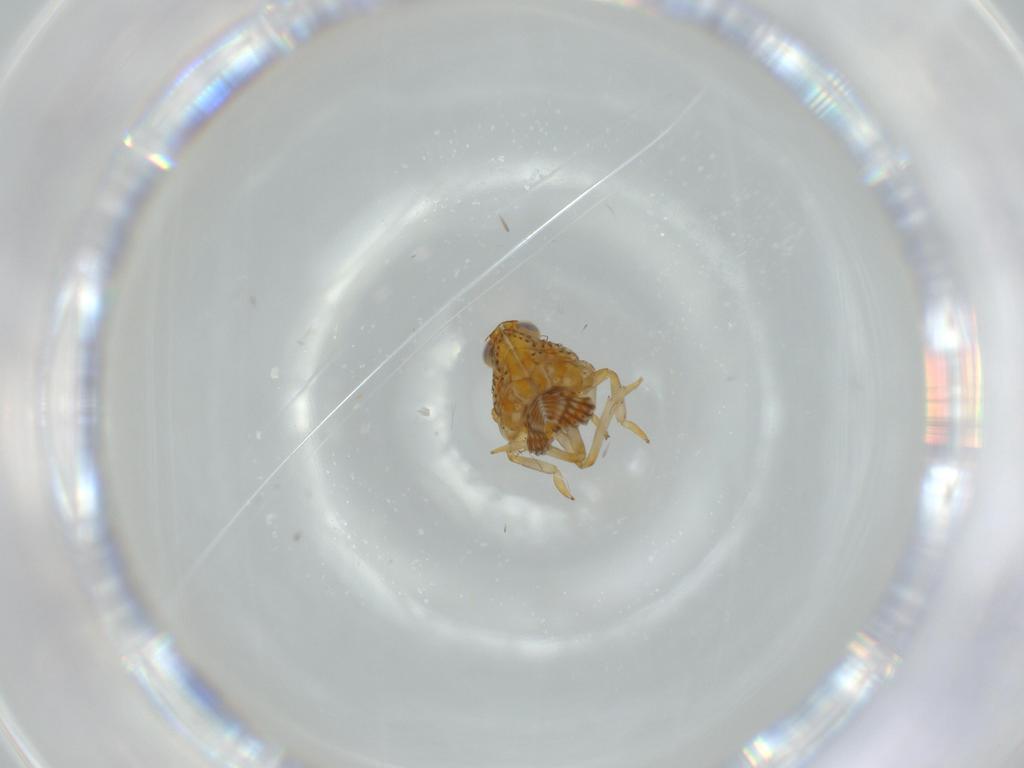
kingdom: Animalia
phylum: Arthropoda
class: Insecta
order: Hemiptera
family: Issidae
